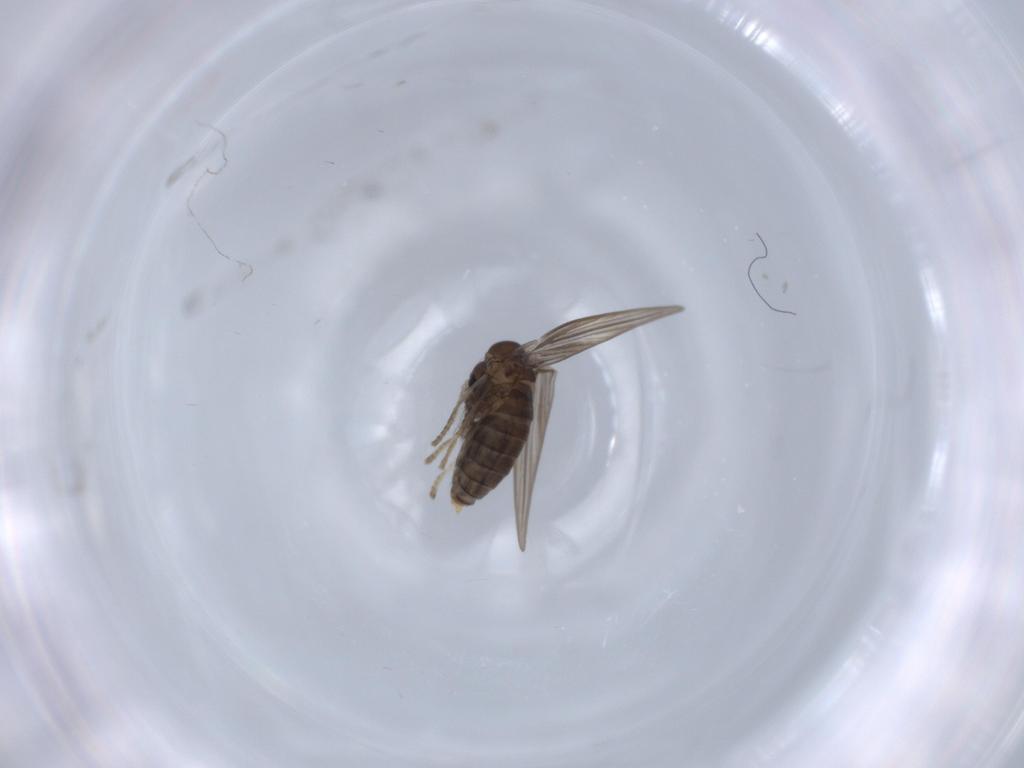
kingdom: Animalia
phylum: Arthropoda
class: Insecta
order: Diptera
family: Psychodidae
